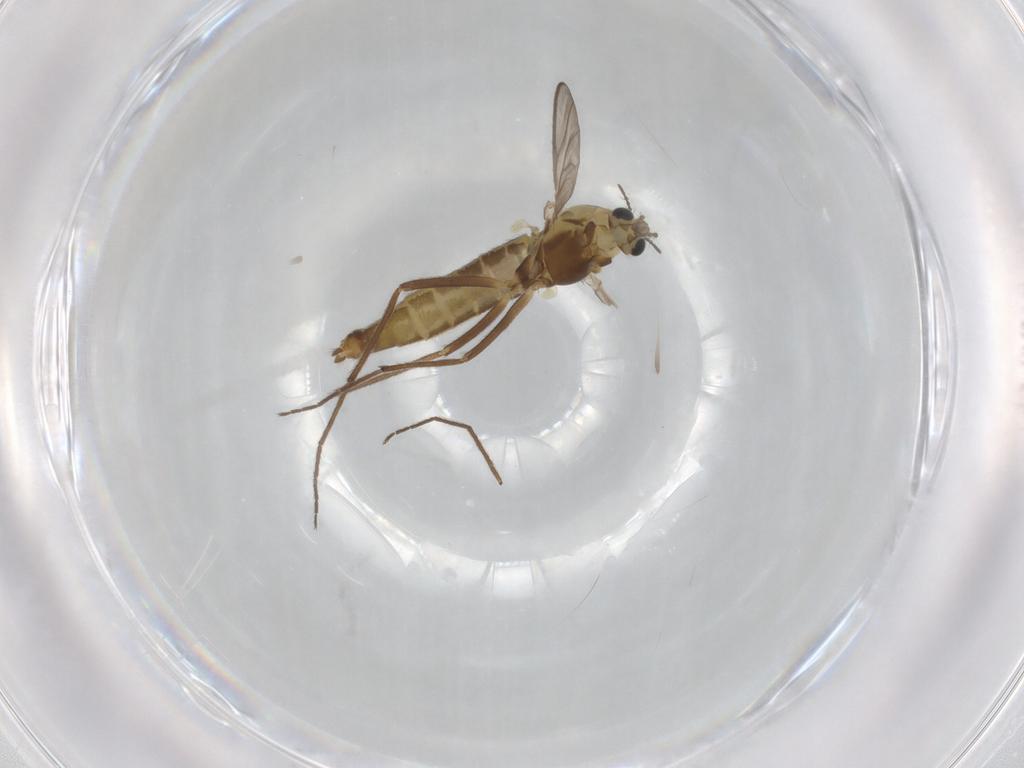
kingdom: Animalia
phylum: Arthropoda
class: Insecta
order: Diptera
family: Chironomidae
